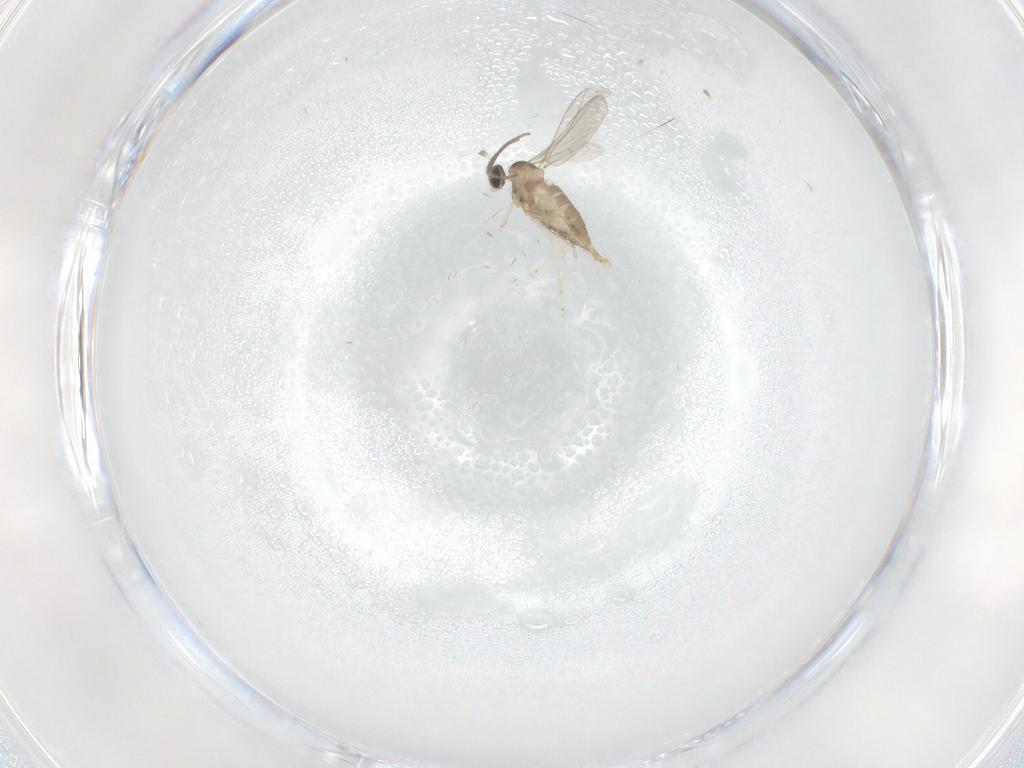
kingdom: Animalia
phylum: Arthropoda
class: Insecta
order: Diptera
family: Cecidomyiidae
